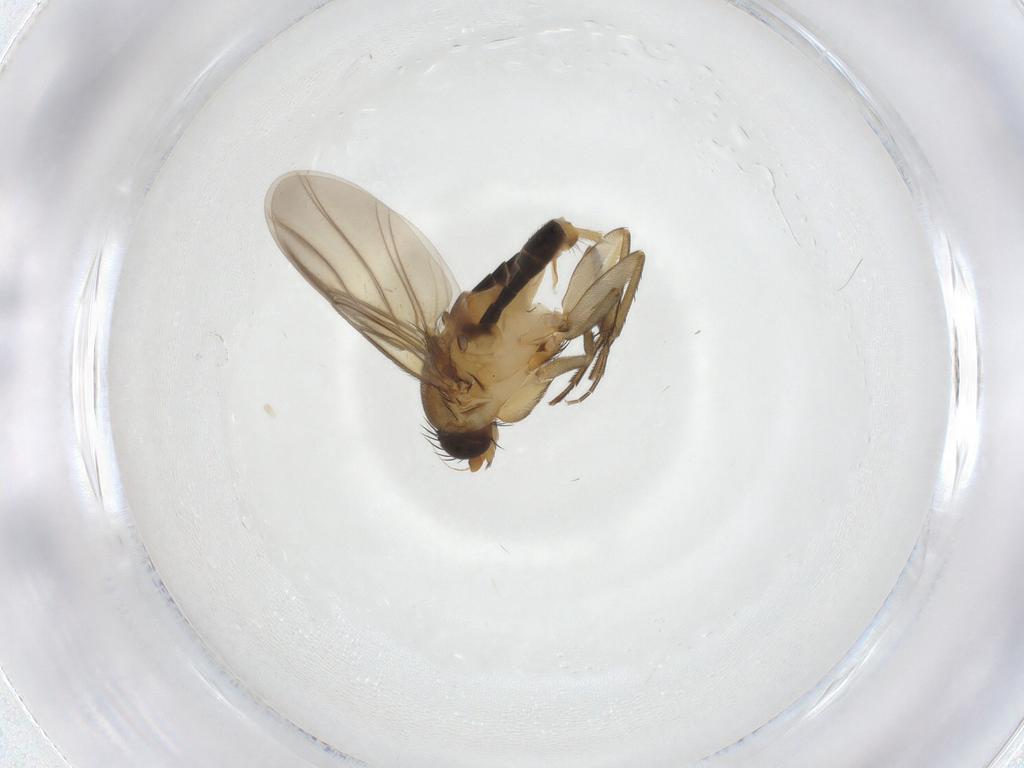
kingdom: Animalia
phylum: Arthropoda
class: Insecta
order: Diptera
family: Phoridae
